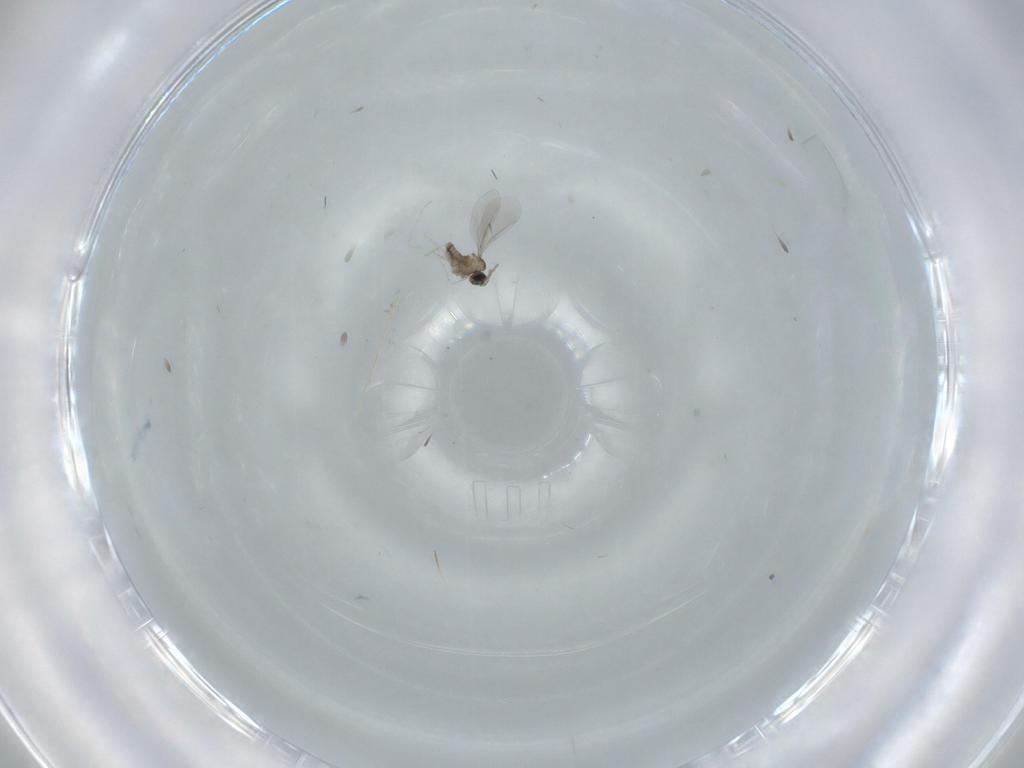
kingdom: Animalia
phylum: Arthropoda
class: Insecta
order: Diptera
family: Cecidomyiidae
